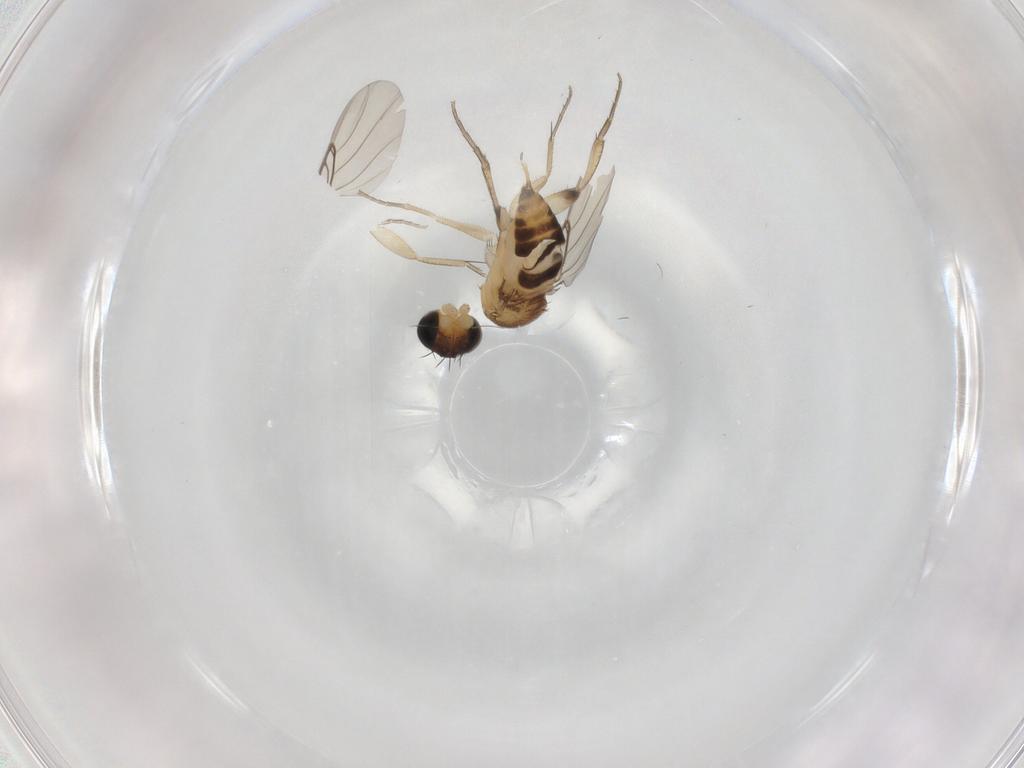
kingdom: Animalia
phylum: Arthropoda
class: Insecta
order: Diptera
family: Phoridae
